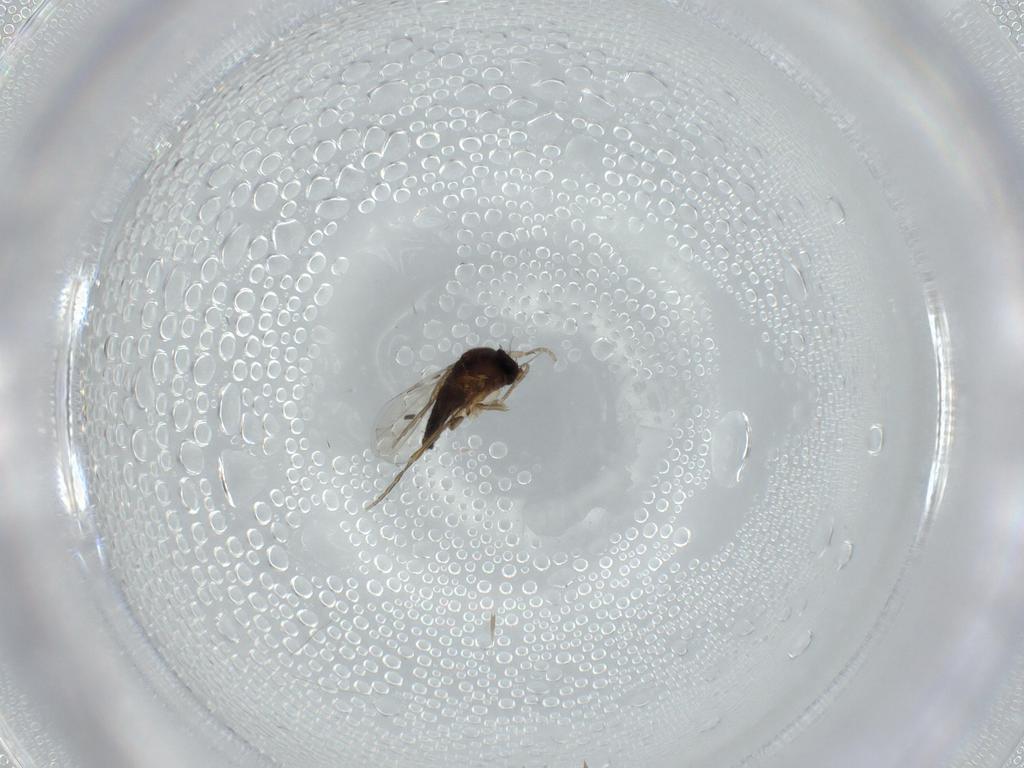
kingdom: Animalia
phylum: Arthropoda
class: Insecta
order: Diptera
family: Phoridae
